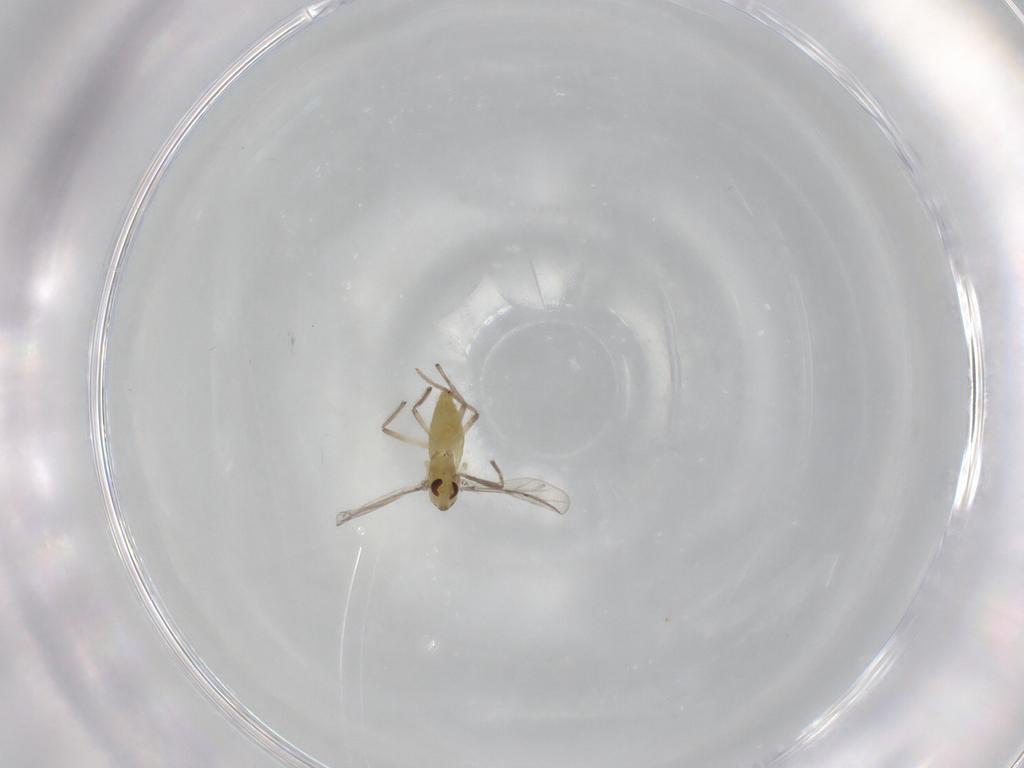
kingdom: Animalia
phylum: Arthropoda
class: Insecta
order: Diptera
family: Chironomidae
